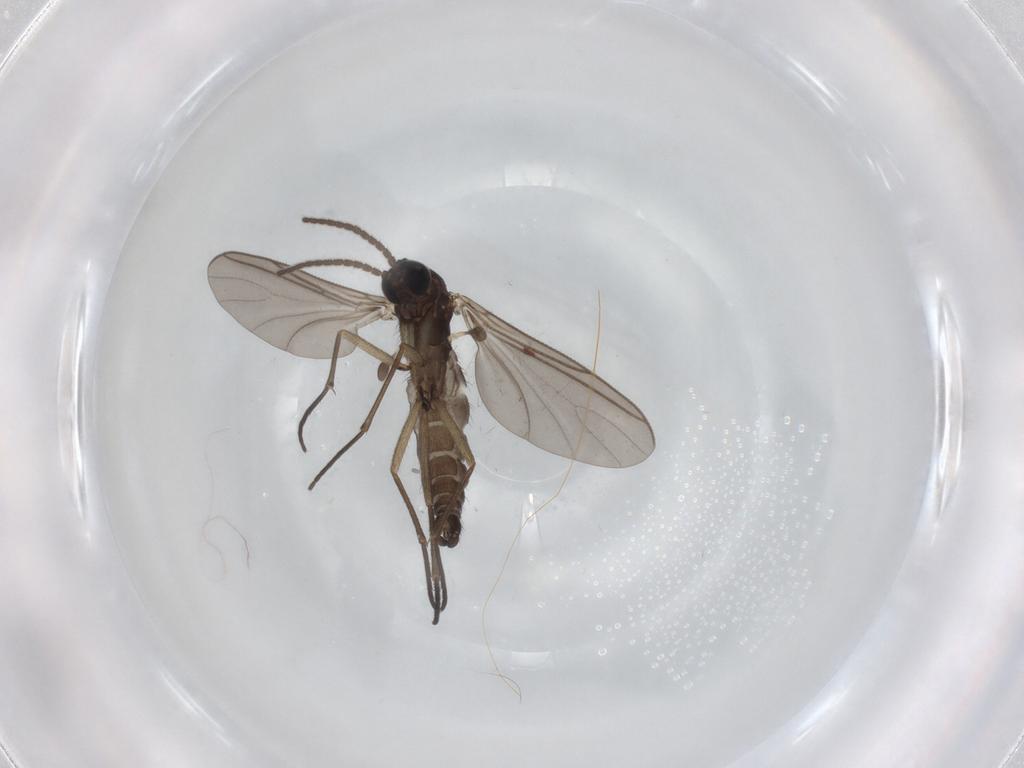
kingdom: Animalia
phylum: Arthropoda
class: Insecta
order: Diptera
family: Sciaridae
